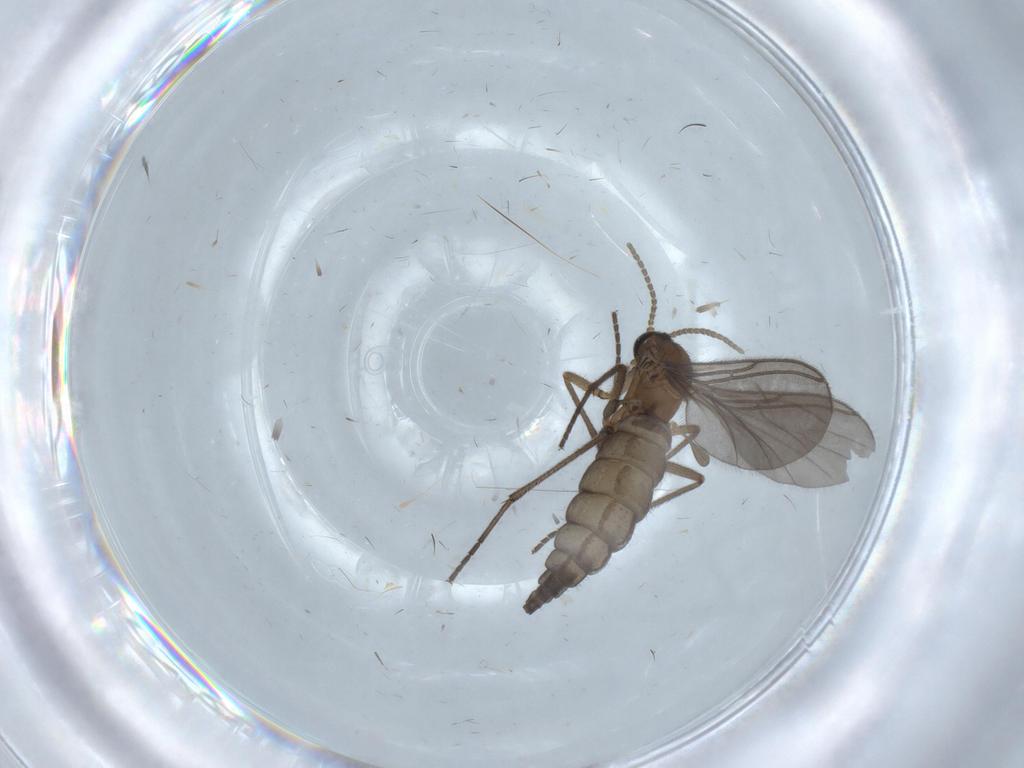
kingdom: Animalia
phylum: Arthropoda
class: Insecta
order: Diptera
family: Sciaridae
